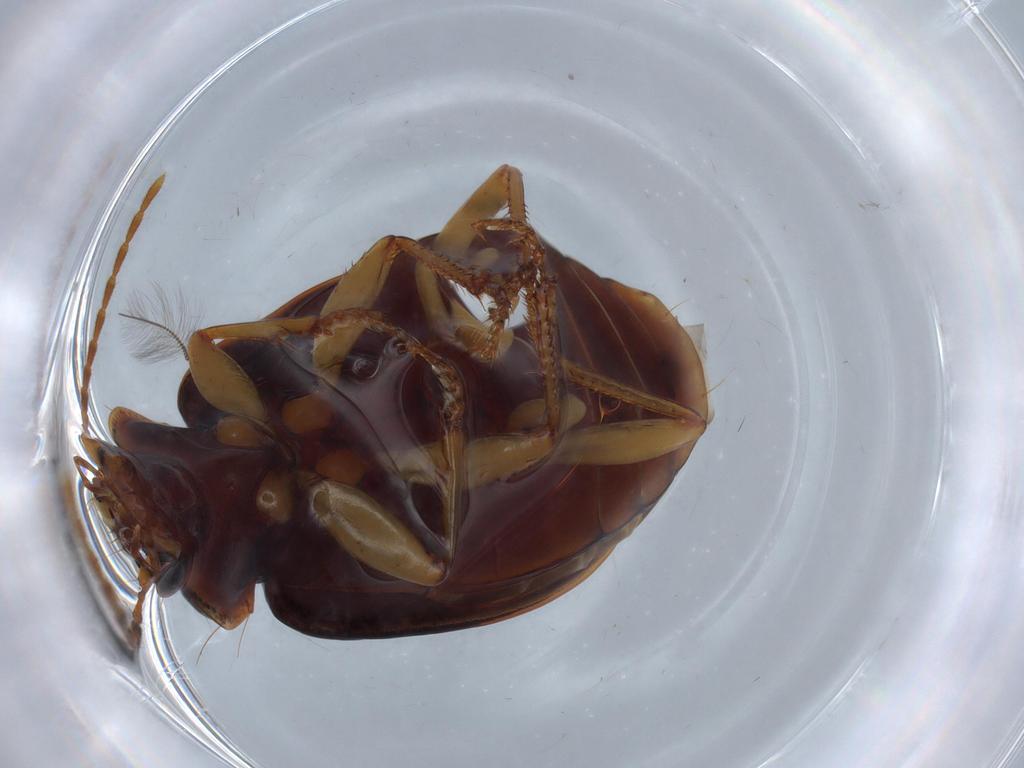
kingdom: Animalia
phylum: Arthropoda
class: Insecta
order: Coleoptera
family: Carabidae
